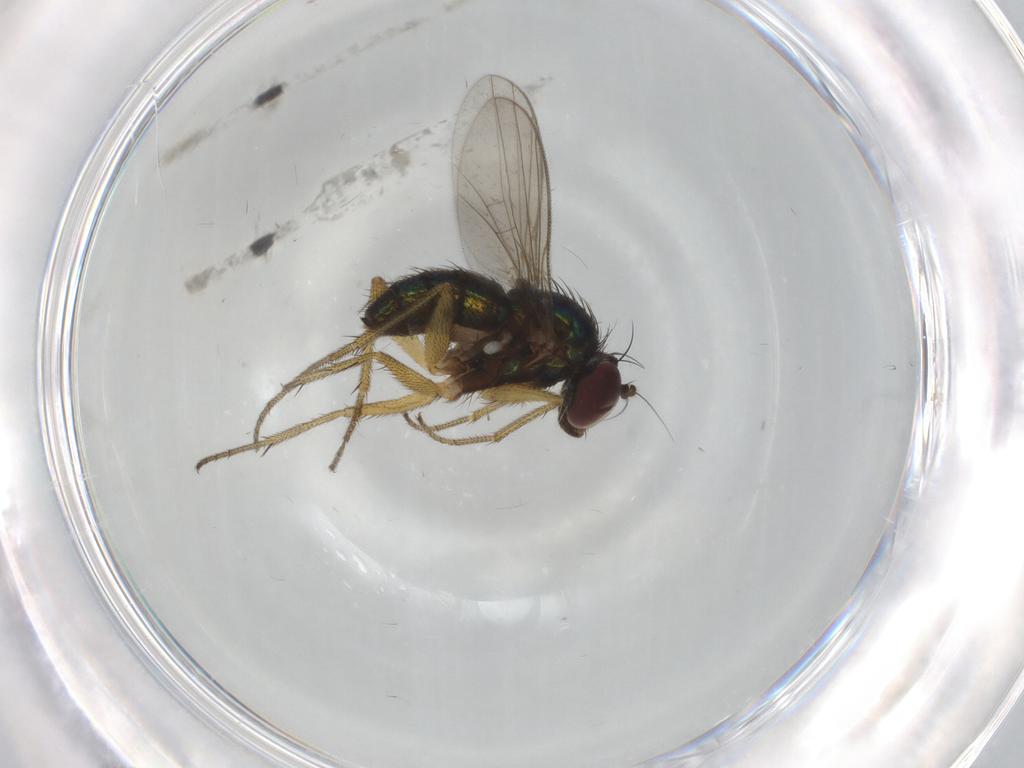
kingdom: Animalia
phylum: Arthropoda
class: Insecta
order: Diptera
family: Dolichopodidae
